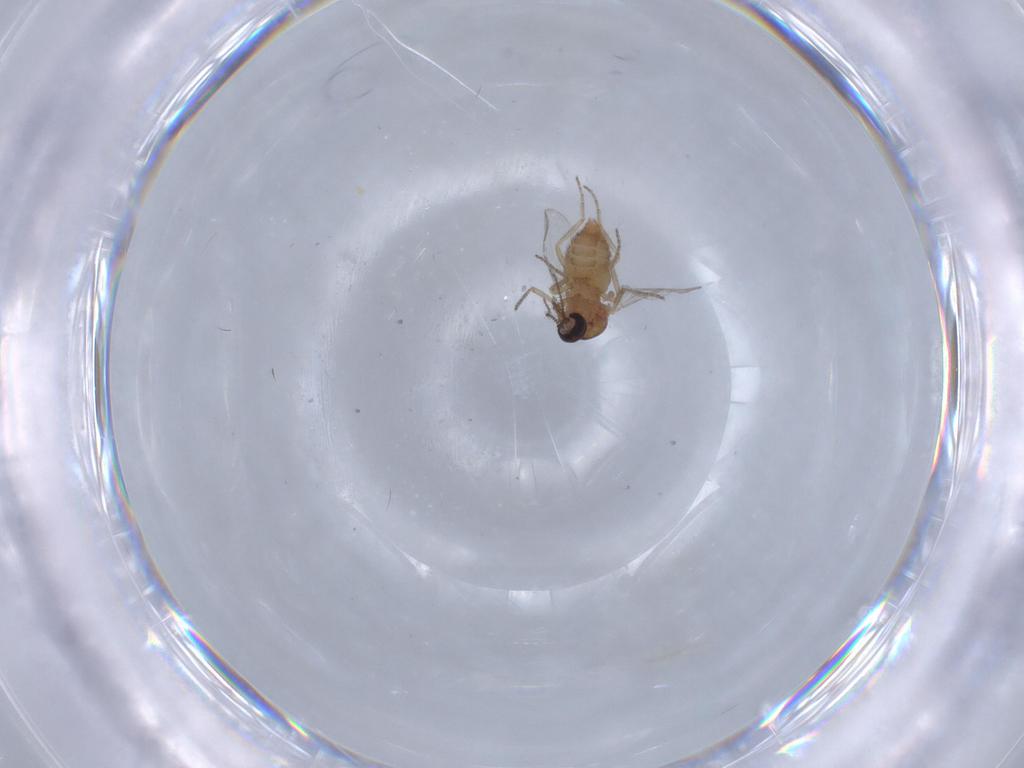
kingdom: Animalia
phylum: Arthropoda
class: Insecta
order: Diptera
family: Ceratopogonidae
